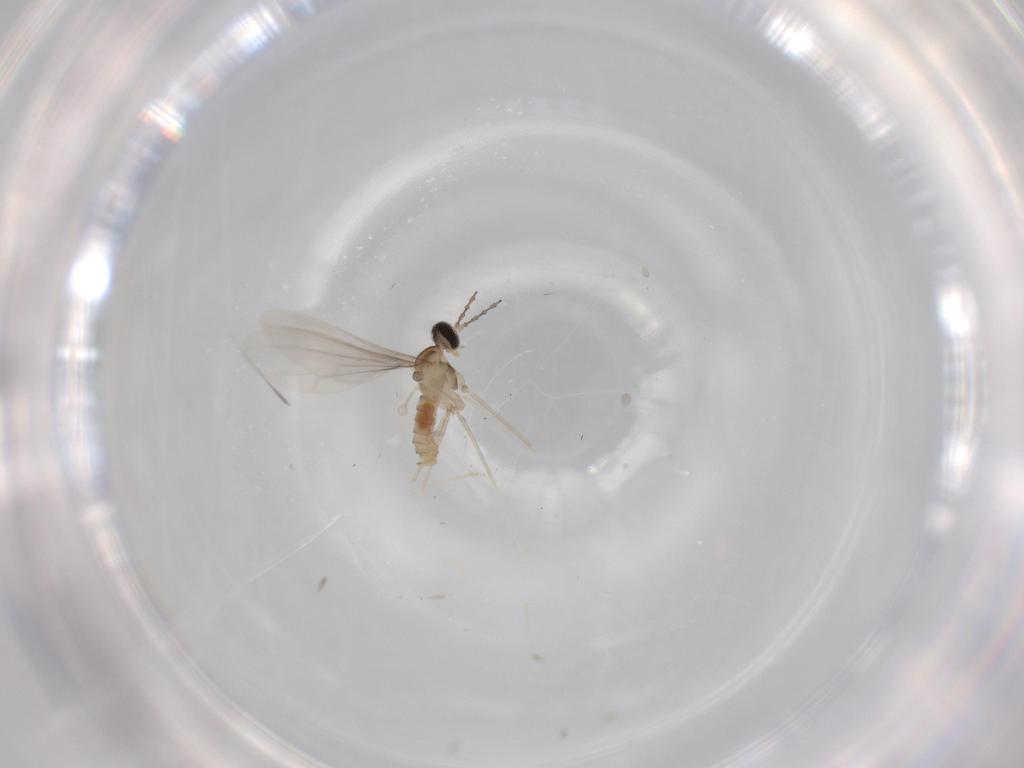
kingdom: Animalia
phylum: Arthropoda
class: Insecta
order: Diptera
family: Cecidomyiidae
